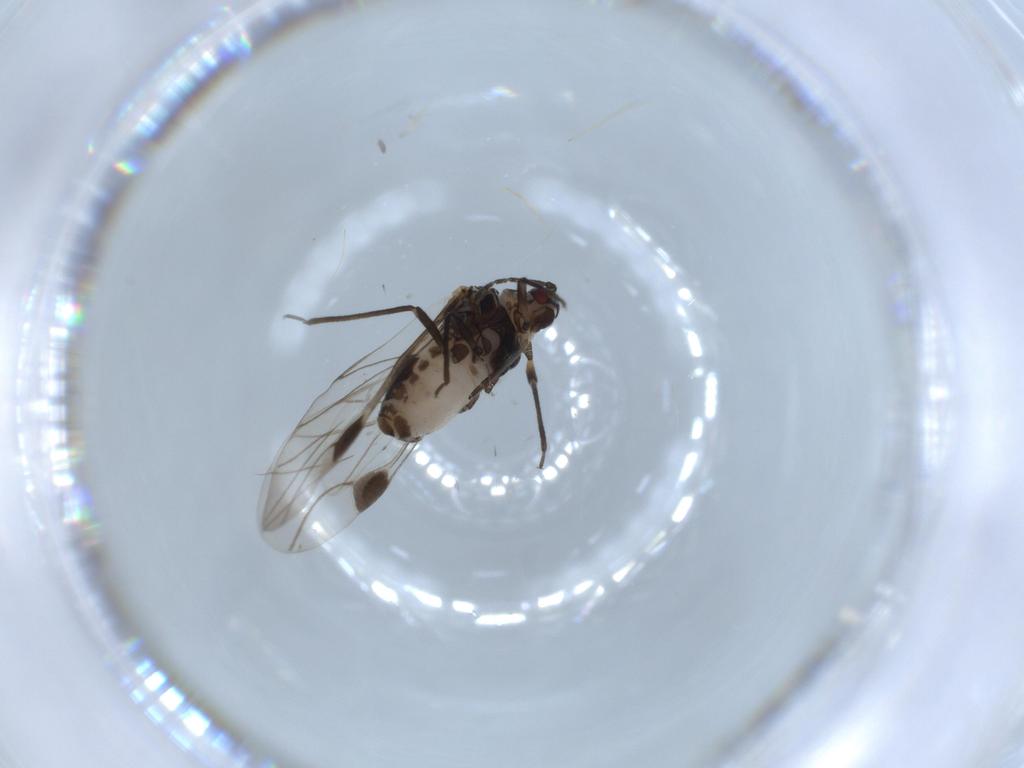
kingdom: Animalia
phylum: Arthropoda
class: Insecta
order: Hemiptera
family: Aphididae
